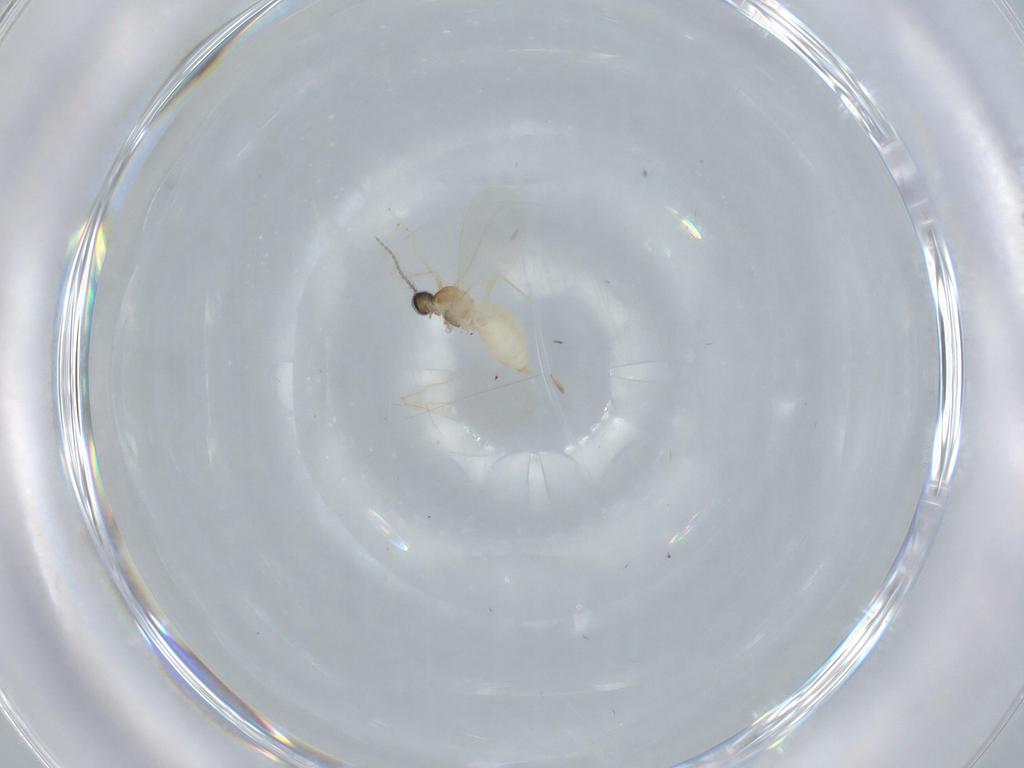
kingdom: Animalia
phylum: Arthropoda
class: Insecta
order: Diptera
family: Cecidomyiidae
